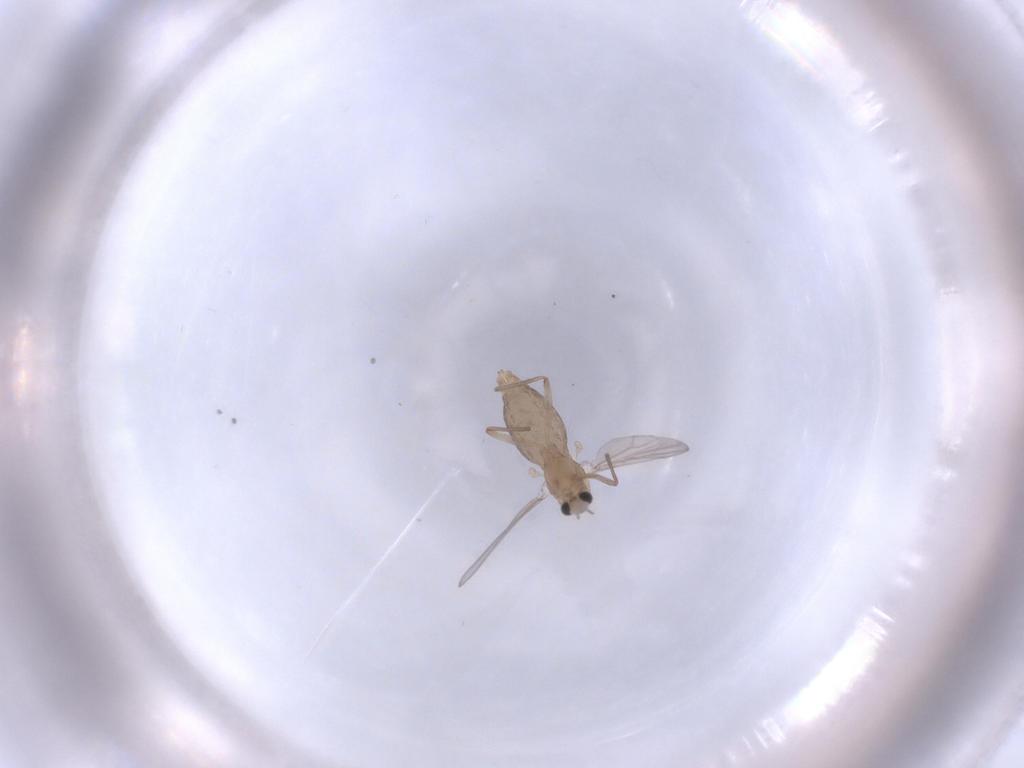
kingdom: Animalia
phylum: Arthropoda
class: Insecta
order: Diptera
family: Chironomidae
